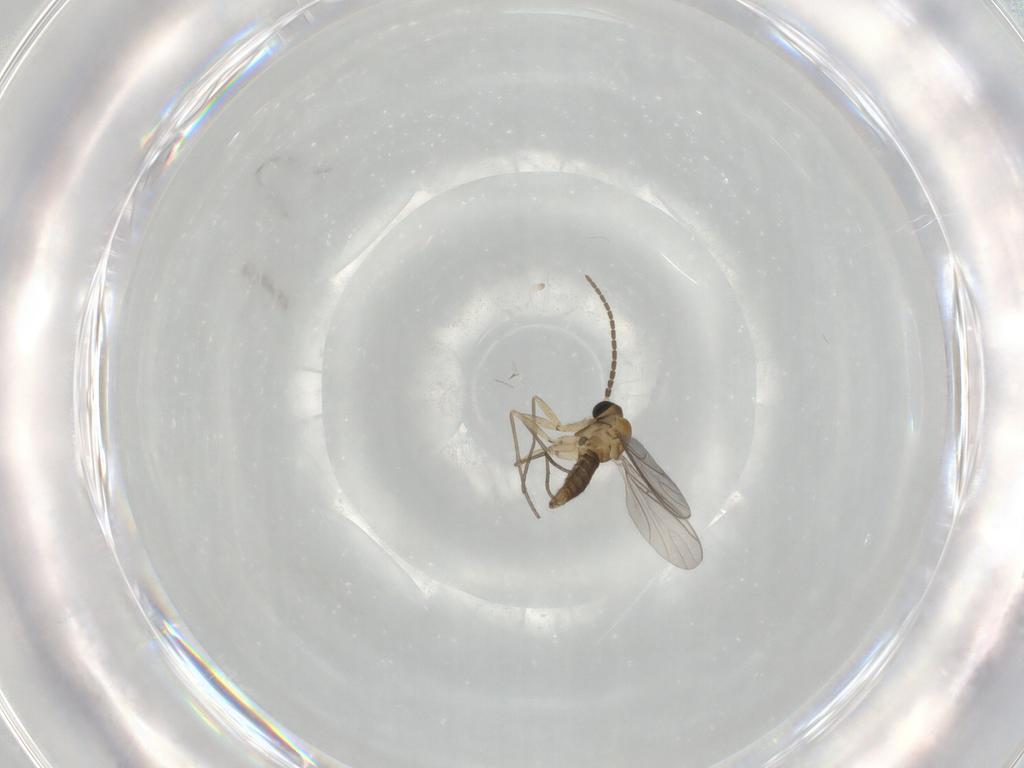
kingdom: Animalia
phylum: Arthropoda
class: Insecta
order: Diptera
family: Sciaridae
